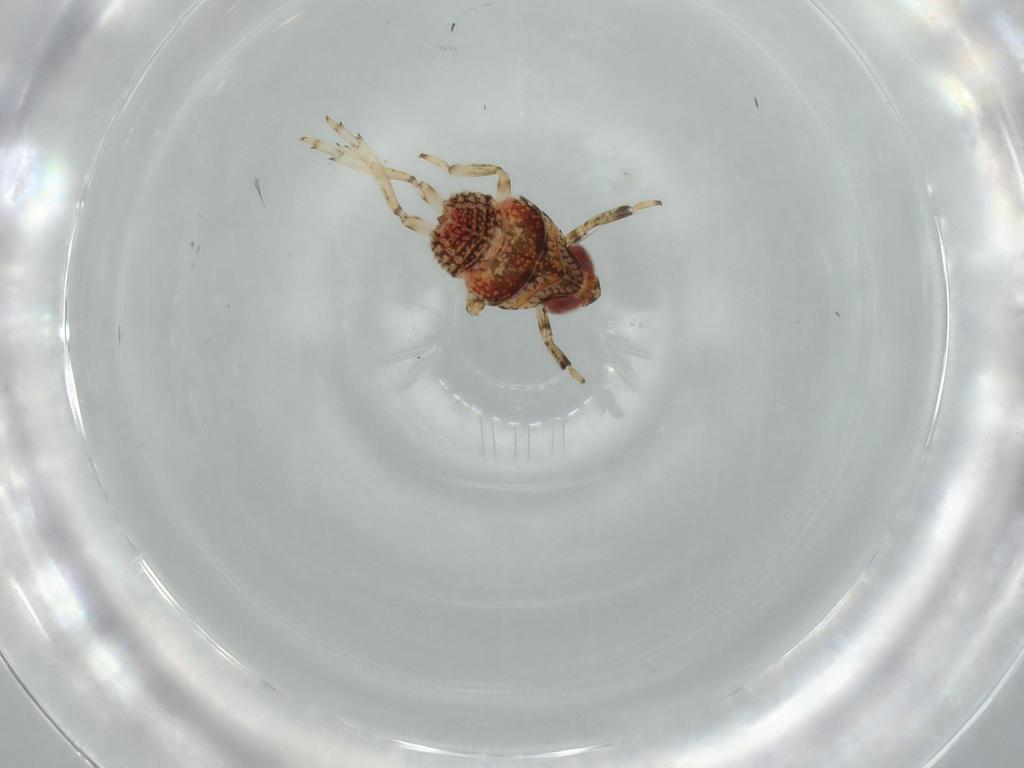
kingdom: Animalia
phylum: Arthropoda
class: Insecta
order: Hemiptera
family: Issidae
